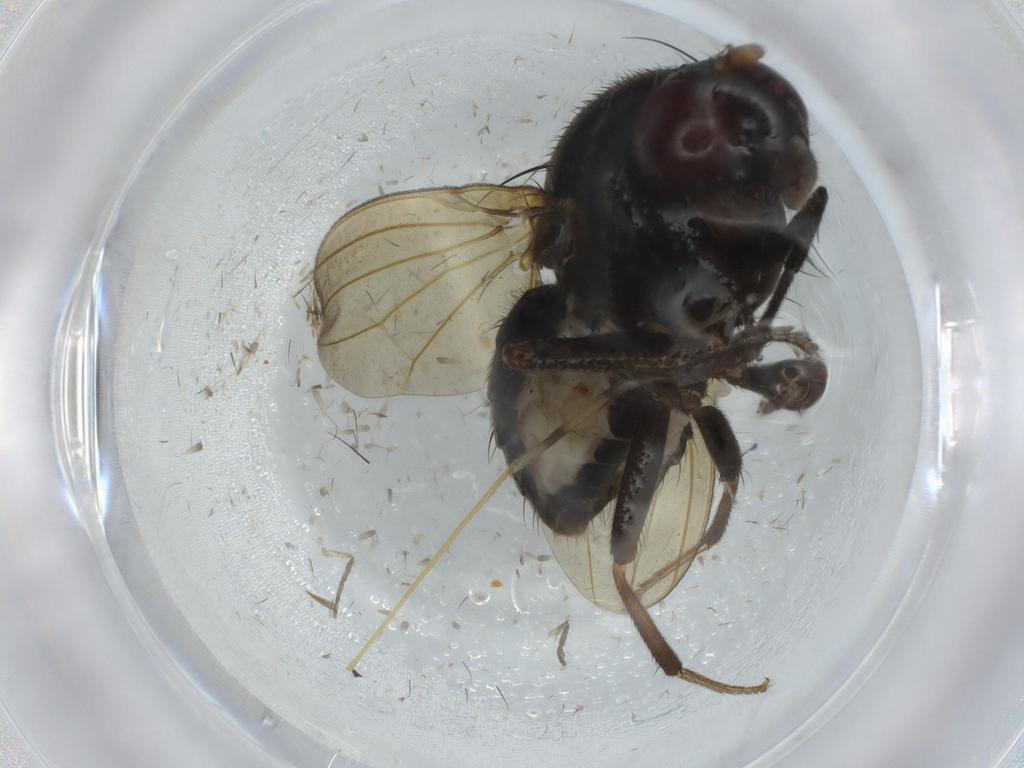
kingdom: Animalia
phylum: Arthropoda
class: Insecta
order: Diptera
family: Limoniidae
